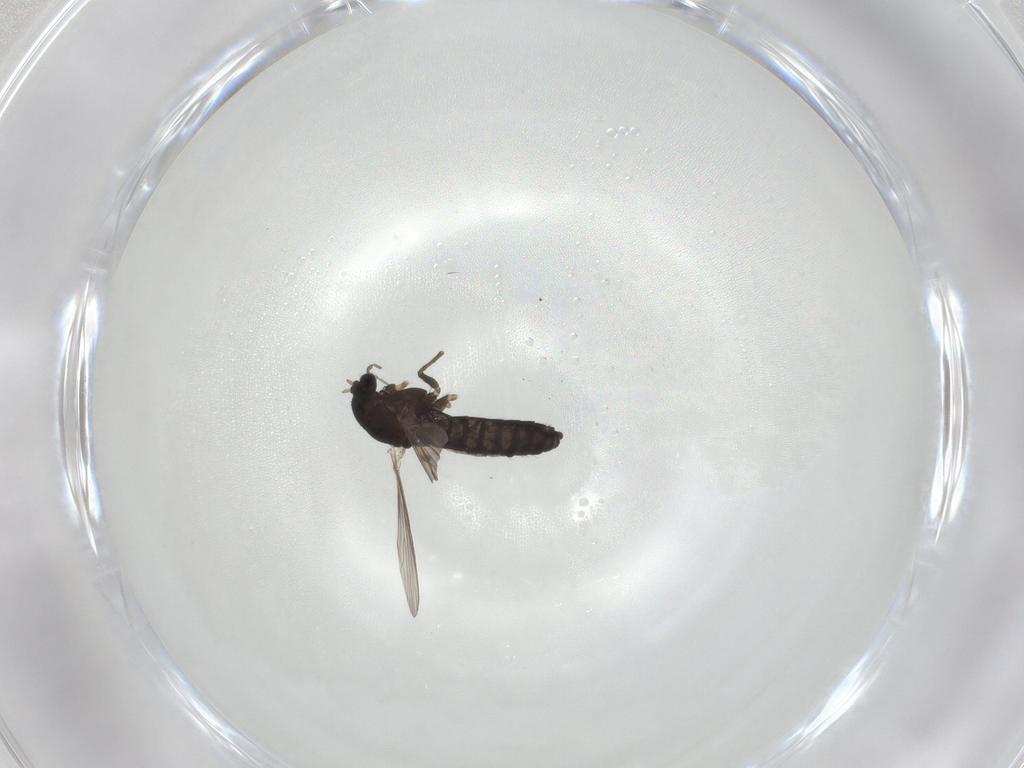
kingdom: Animalia
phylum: Arthropoda
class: Insecta
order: Diptera
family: Chironomidae
